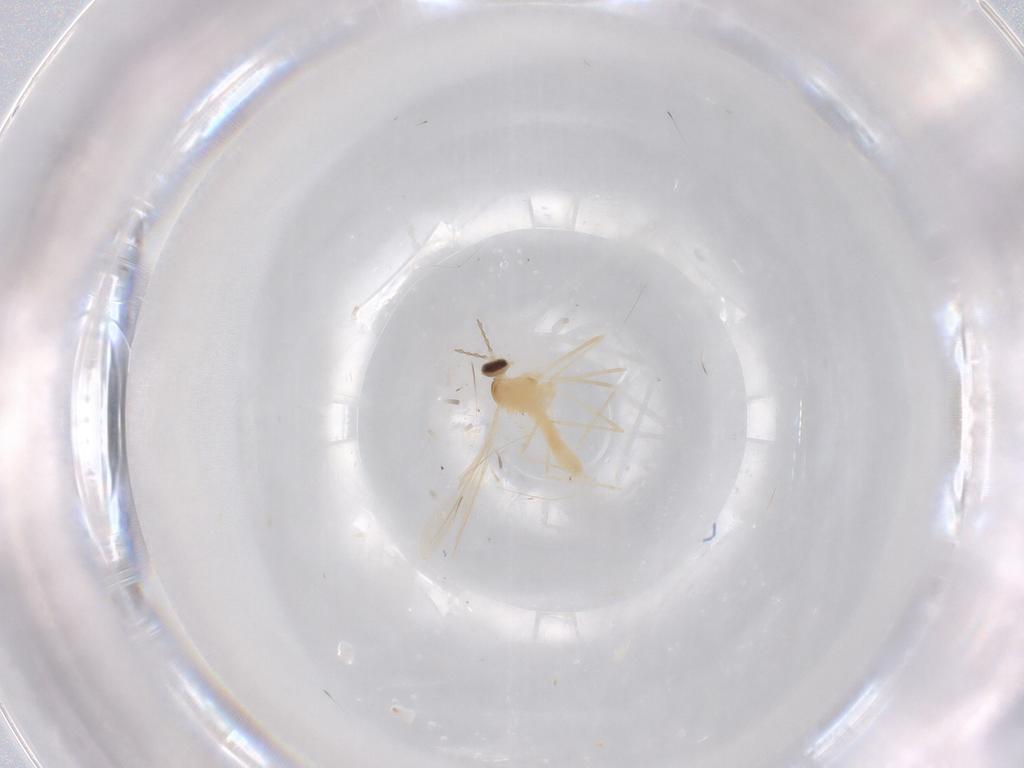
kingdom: Animalia
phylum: Arthropoda
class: Insecta
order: Diptera
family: Cecidomyiidae
